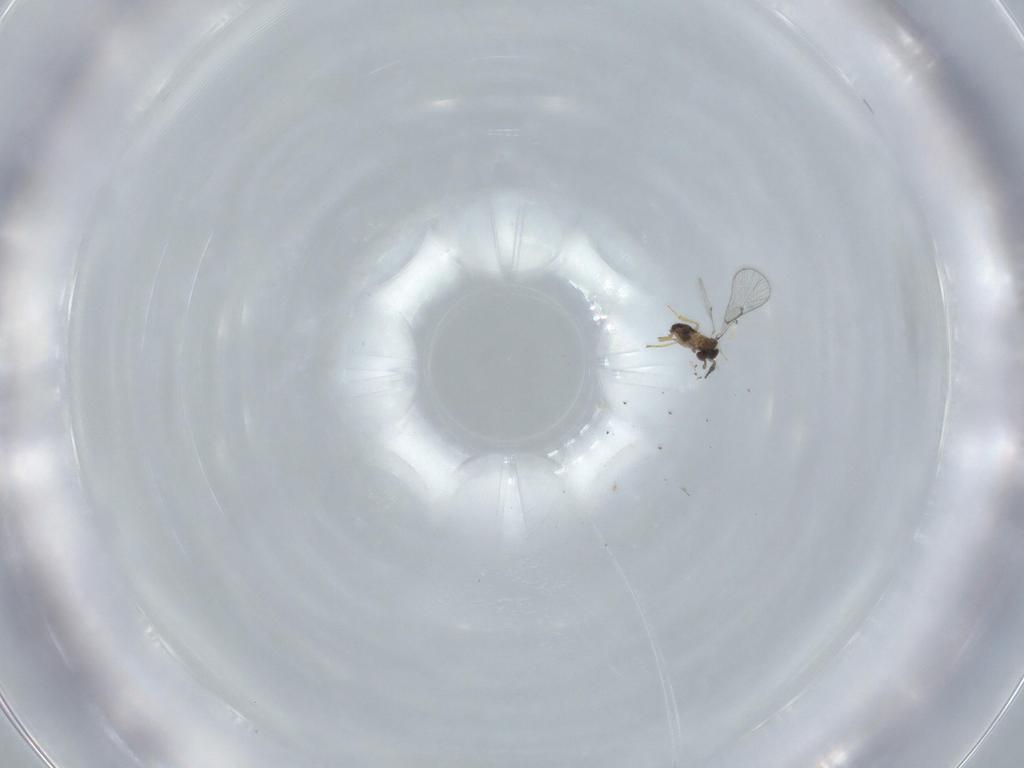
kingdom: Animalia
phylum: Arthropoda
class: Insecta
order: Hymenoptera
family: Trichogrammatidae
